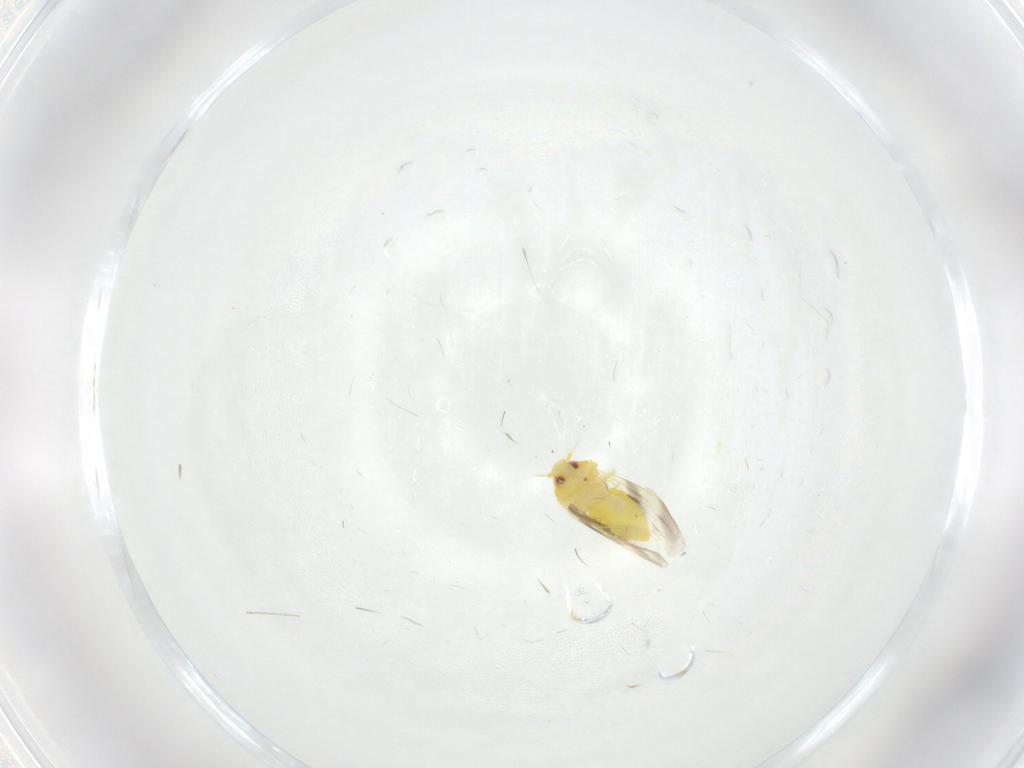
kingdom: Animalia
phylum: Arthropoda
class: Insecta
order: Hemiptera
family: Aleyrodidae
